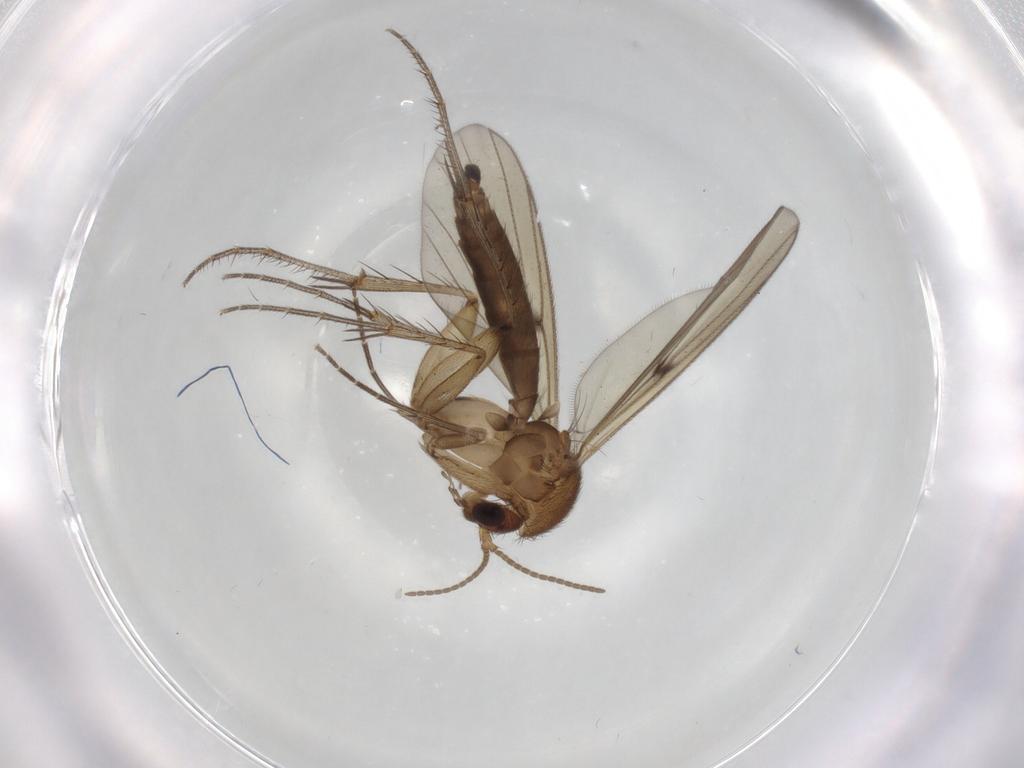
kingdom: Animalia
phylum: Arthropoda
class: Insecta
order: Diptera
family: Mycetophilidae
